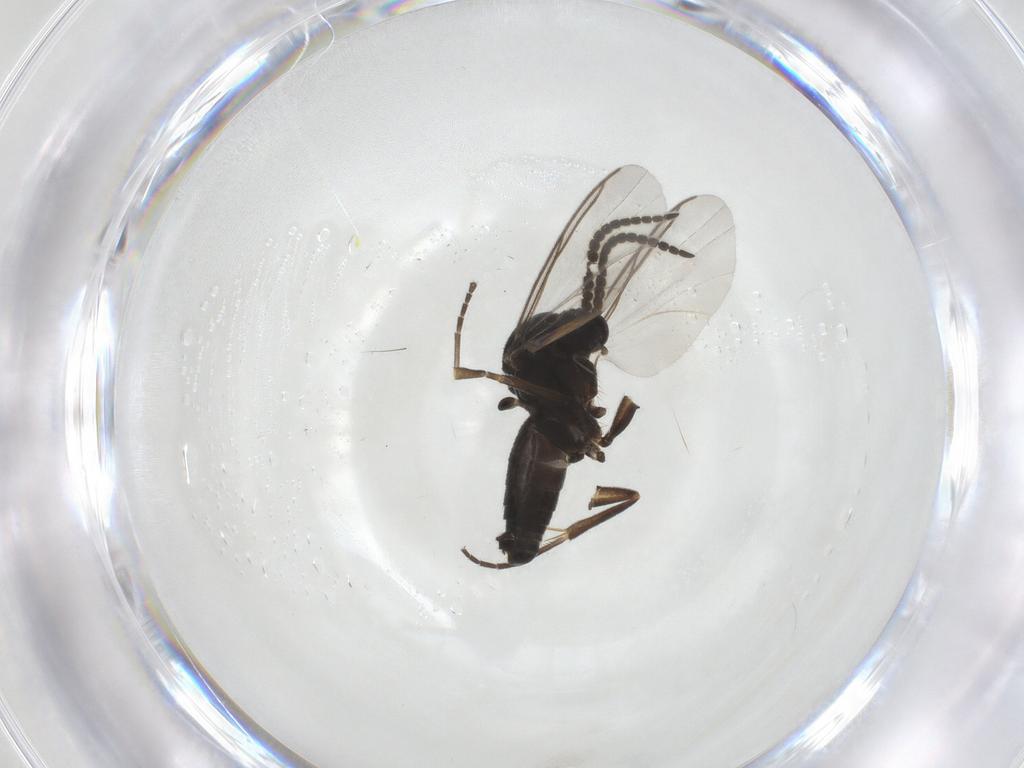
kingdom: Animalia
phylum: Arthropoda
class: Insecta
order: Diptera
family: Mycetophilidae
